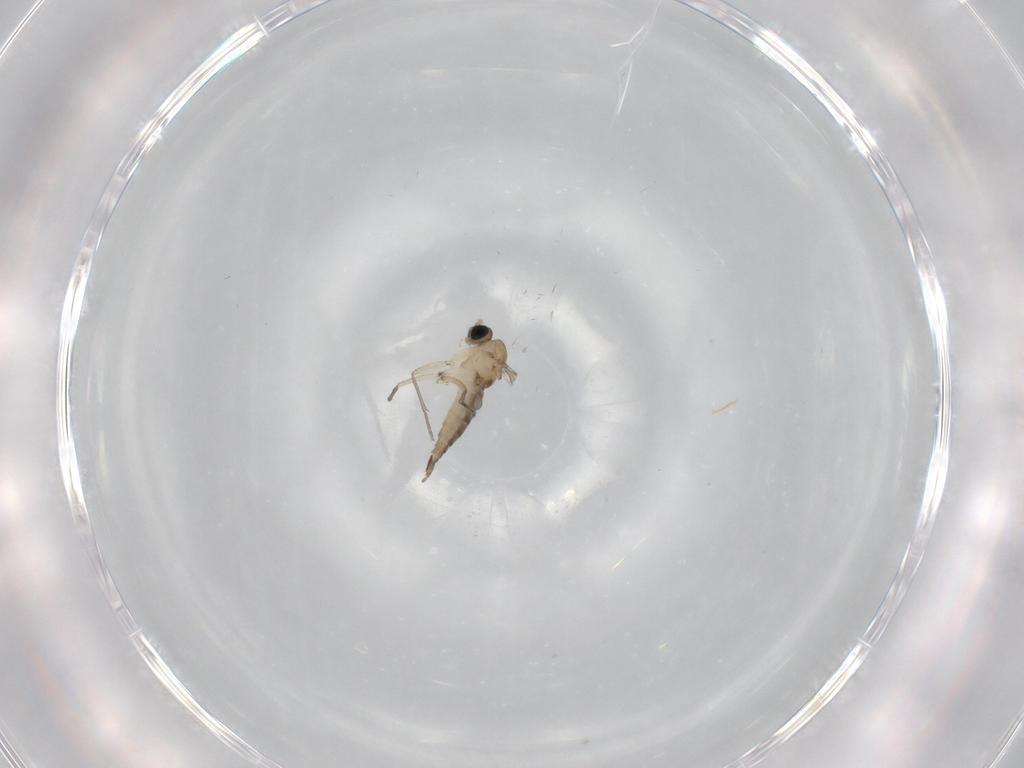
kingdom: Animalia
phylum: Arthropoda
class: Insecta
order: Diptera
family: Sciaridae
